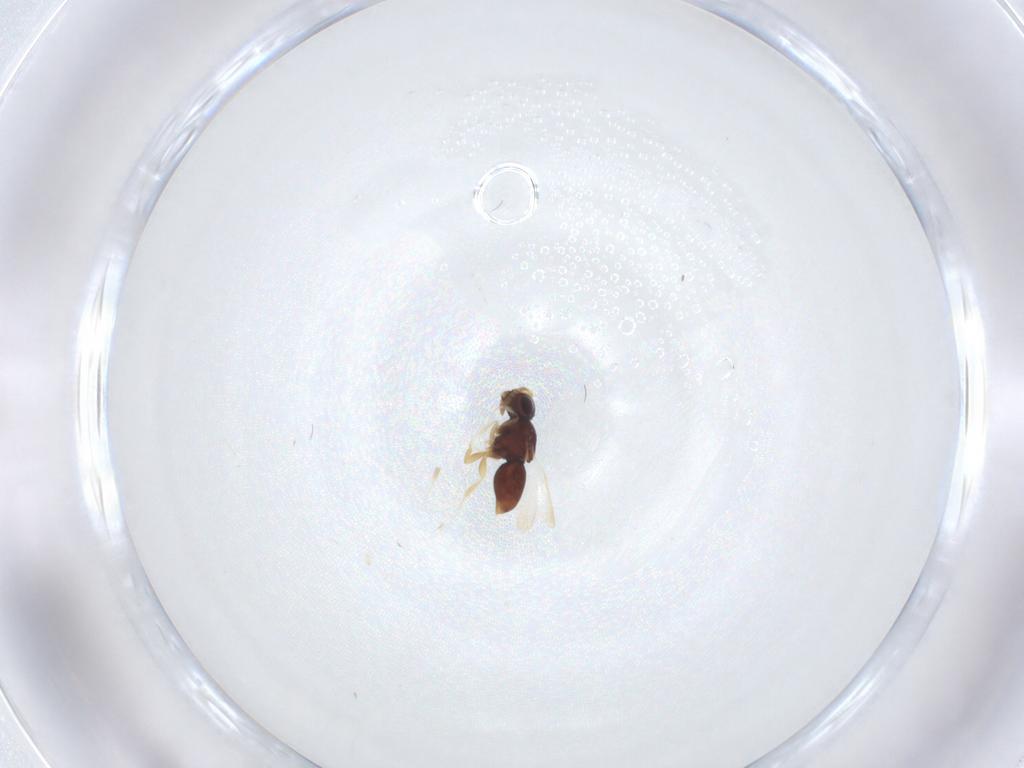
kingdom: Animalia
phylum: Arthropoda
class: Insecta
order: Hymenoptera
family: Ceraphronidae
